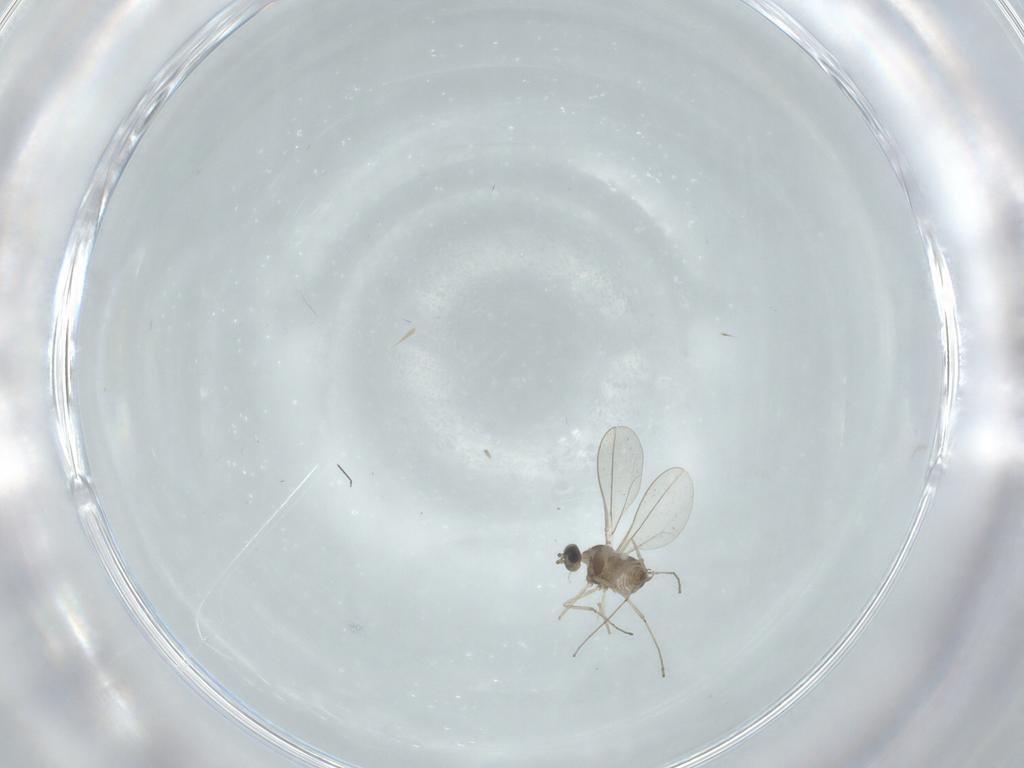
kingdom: Animalia
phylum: Arthropoda
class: Insecta
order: Diptera
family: Cecidomyiidae
